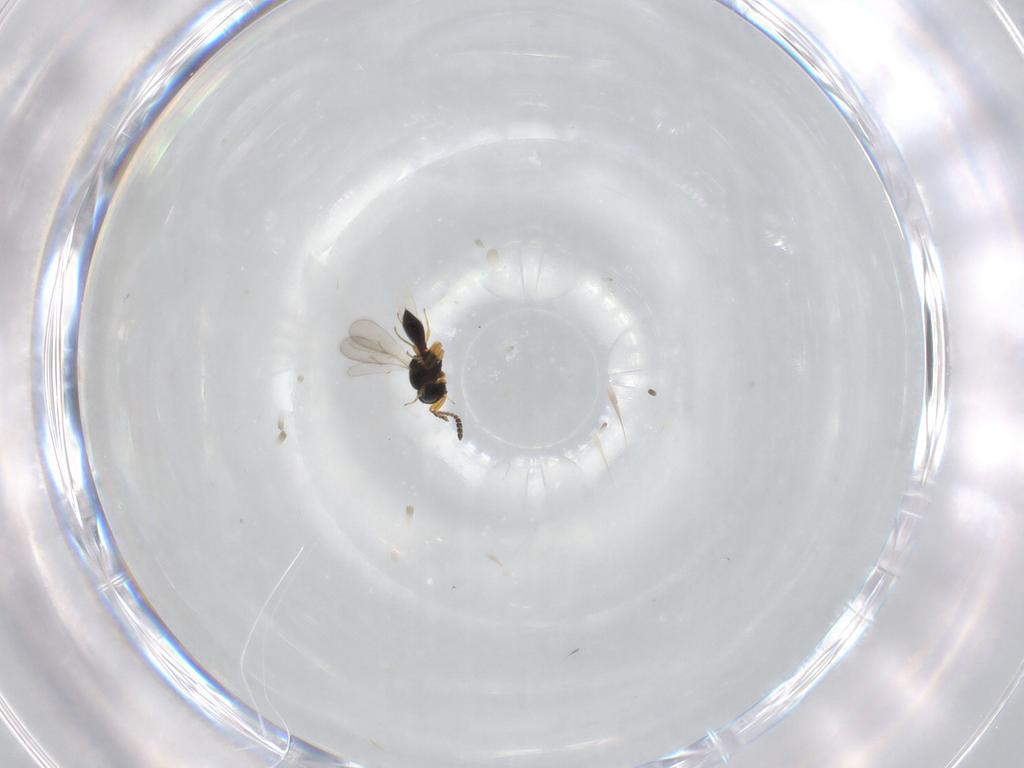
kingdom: Animalia
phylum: Arthropoda
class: Insecta
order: Hymenoptera
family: Scelionidae
